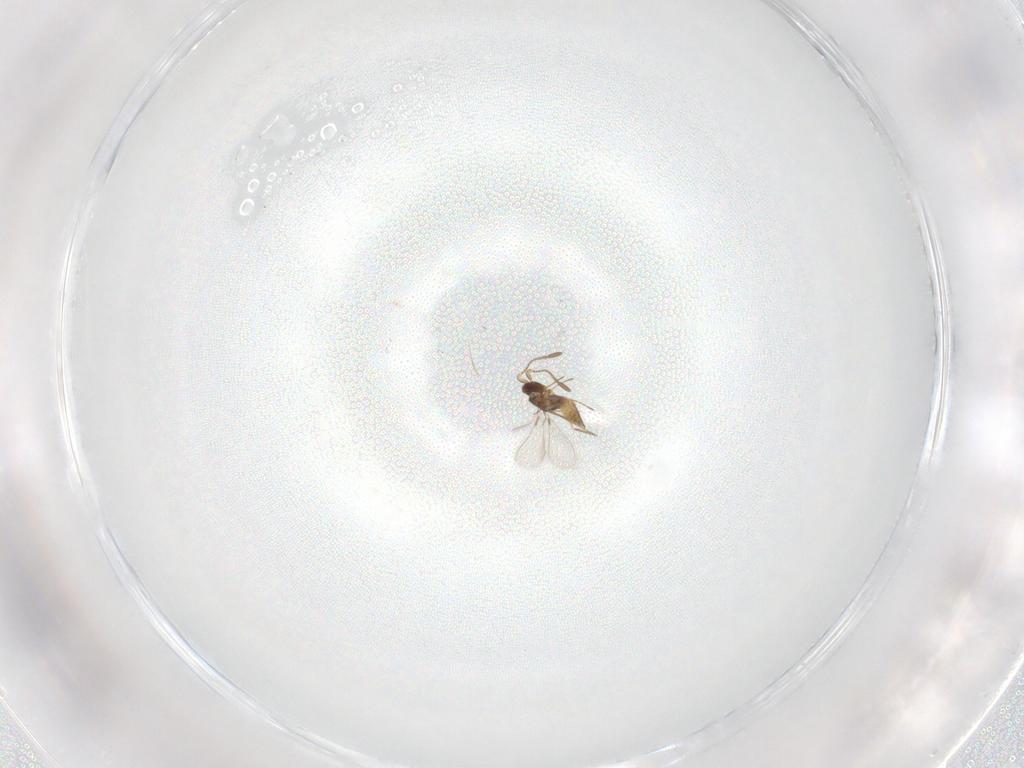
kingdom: Animalia
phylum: Arthropoda
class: Insecta
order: Hymenoptera
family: Mymaridae
